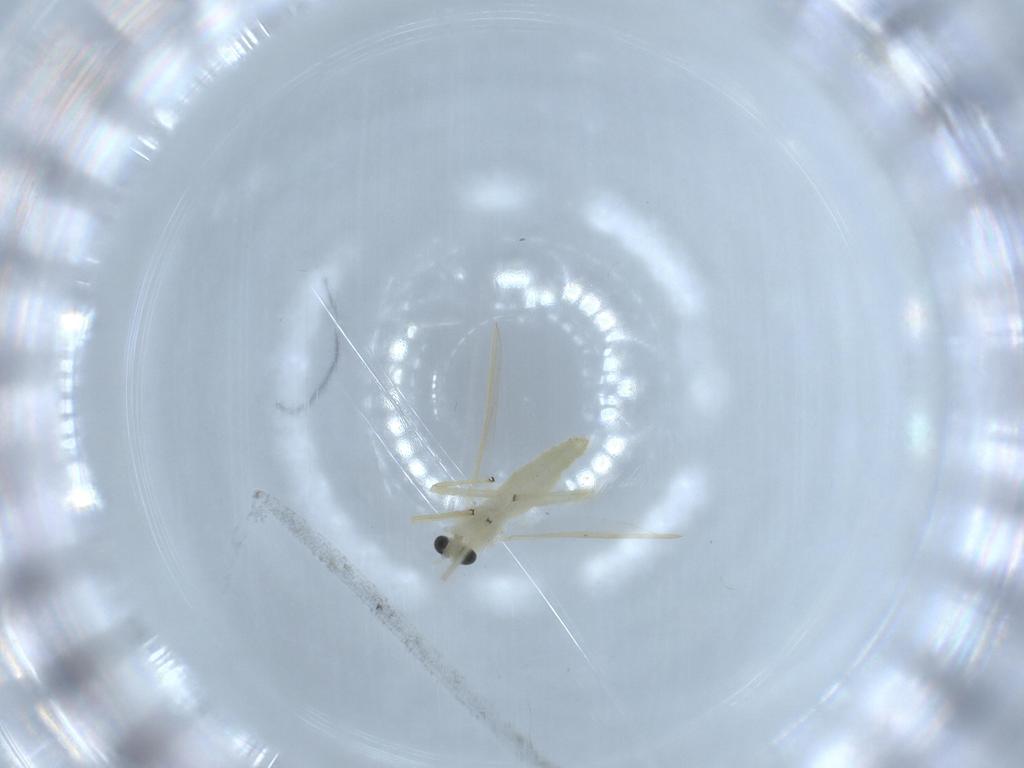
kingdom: Animalia
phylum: Arthropoda
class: Insecta
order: Diptera
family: Chironomidae
